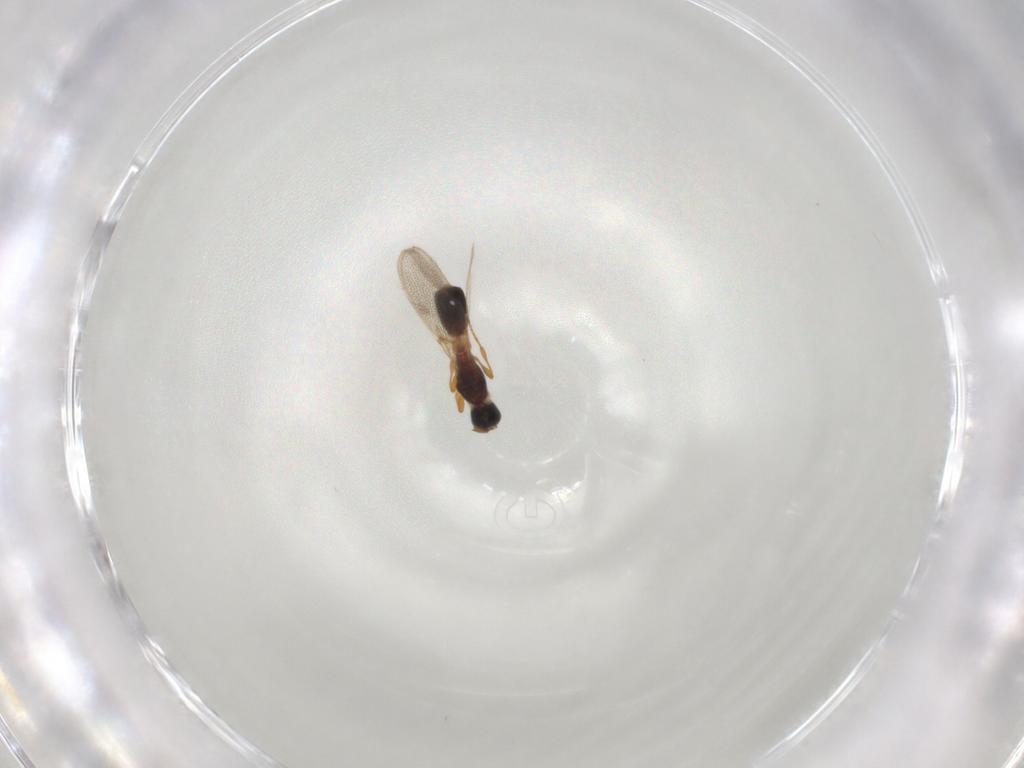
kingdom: Animalia
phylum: Arthropoda
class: Insecta
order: Hymenoptera
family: Diapriidae
